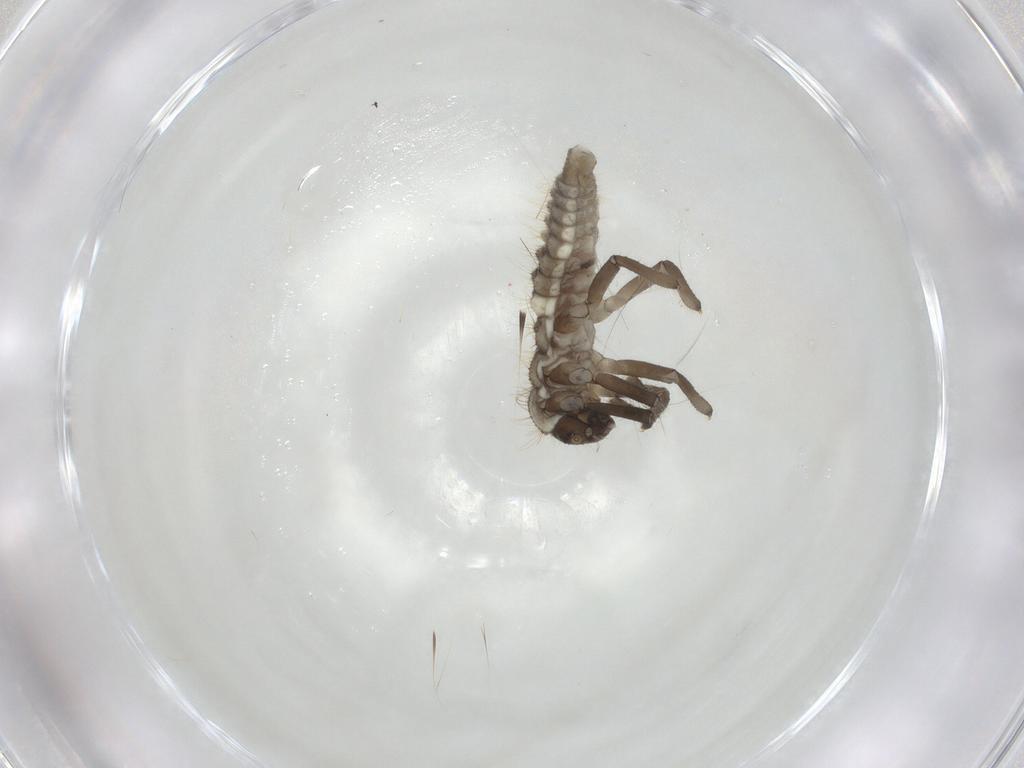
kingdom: Animalia
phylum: Arthropoda
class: Insecta
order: Coleoptera
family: Coccinellidae
